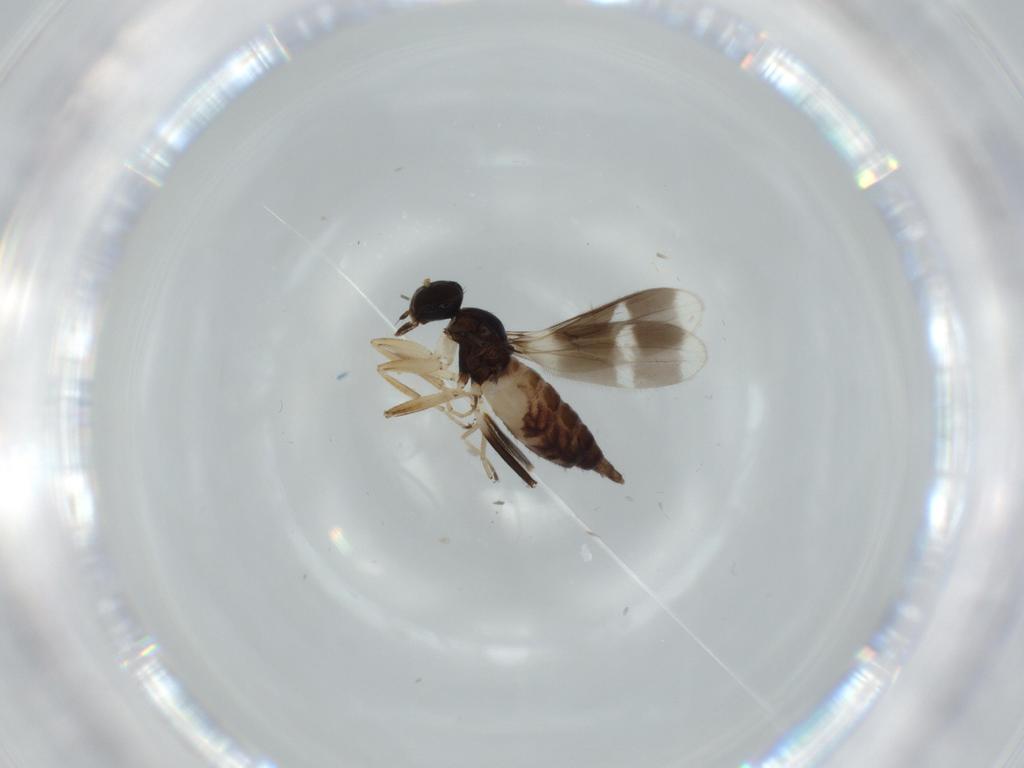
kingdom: Animalia
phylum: Arthropoda
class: Insecta
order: Diptera
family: Hybotidae
